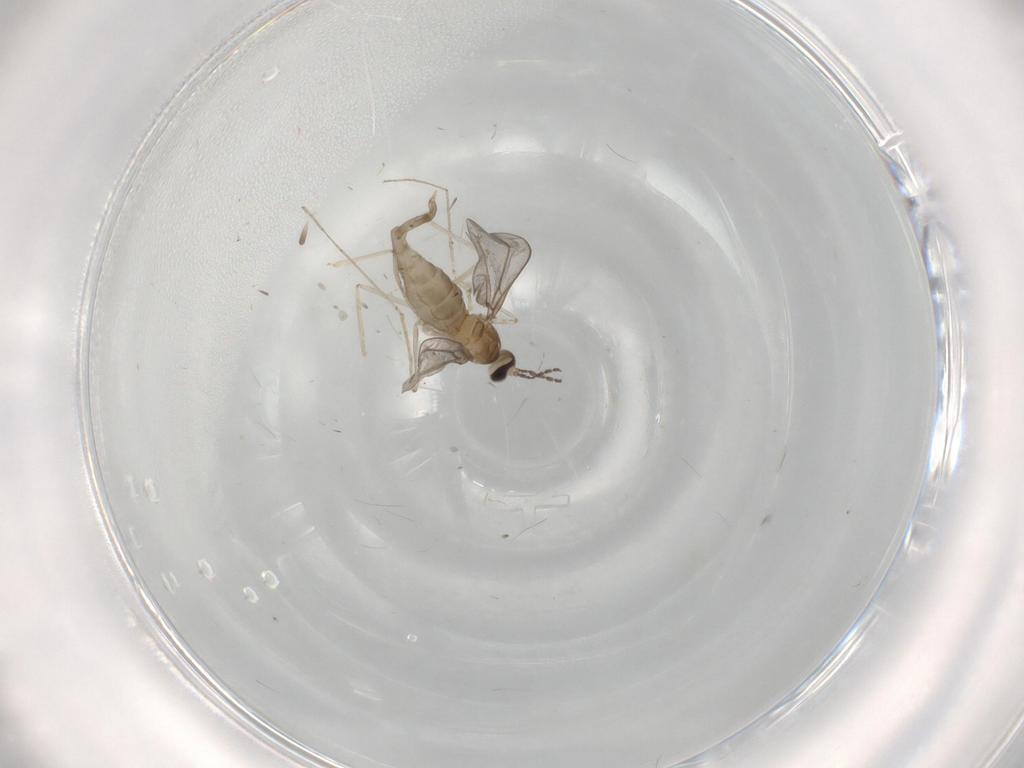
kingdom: Animalia
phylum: Arthropoda
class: Insecta
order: Diptera
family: Cecidomyiidae
